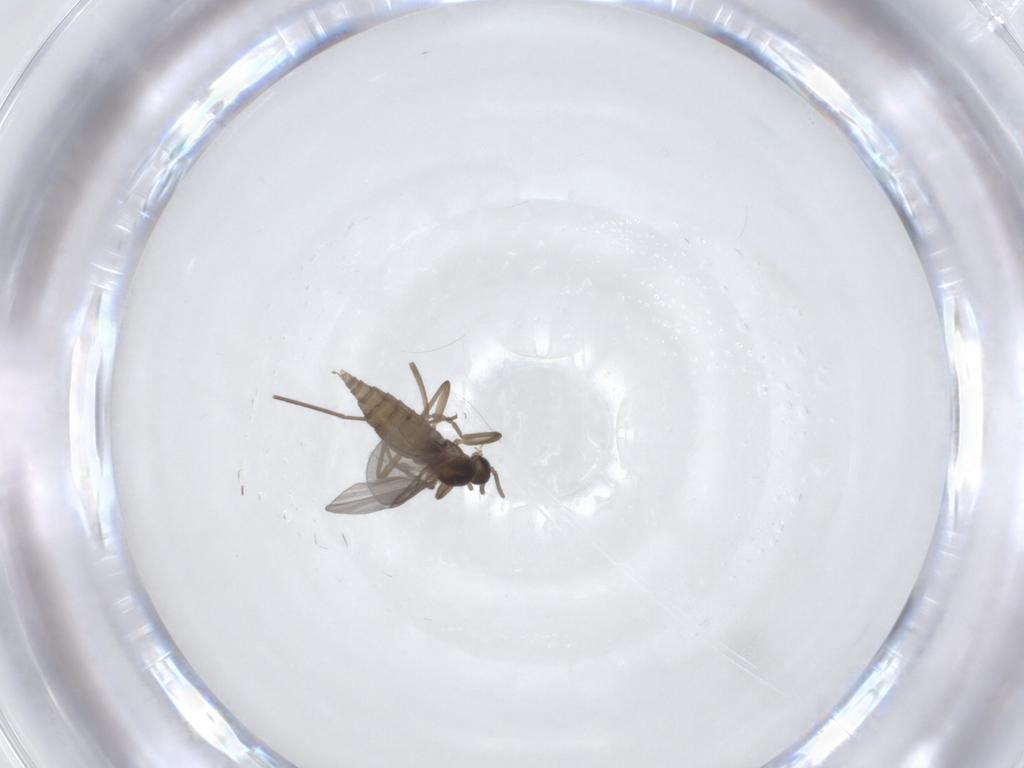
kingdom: Animalia
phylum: Arthropoda
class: Insecta
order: Diptera
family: Cecidomyiidae
